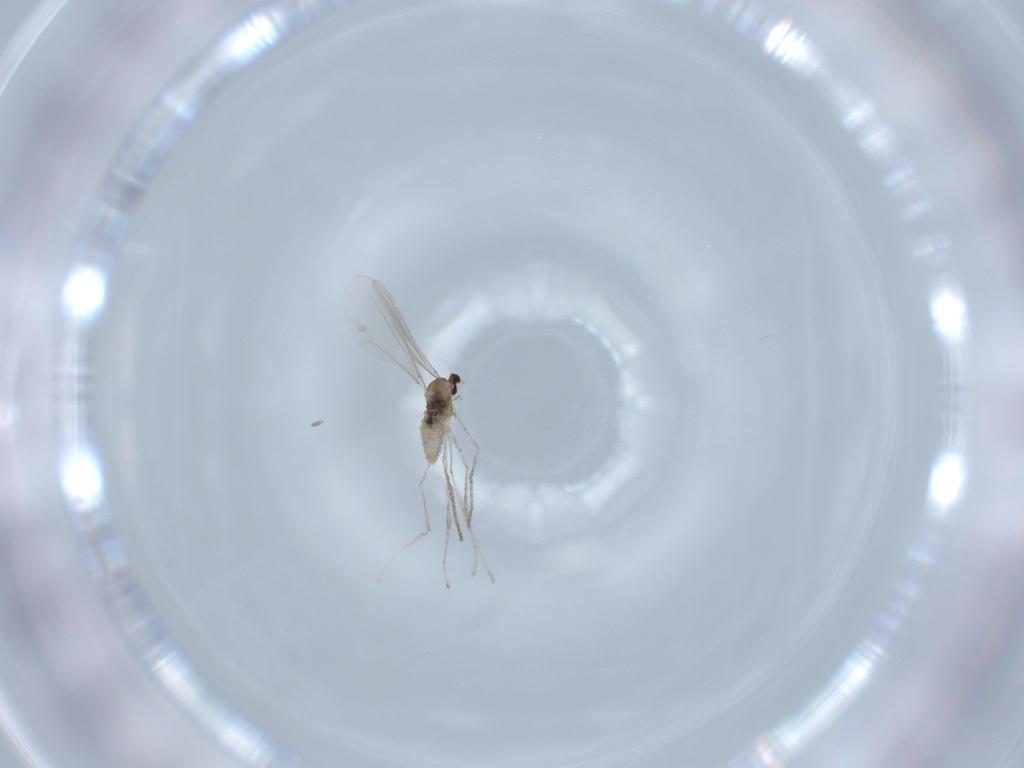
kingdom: Animalia
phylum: Arthropoda
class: Insecta
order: Diptera
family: Cecidomyiidae
